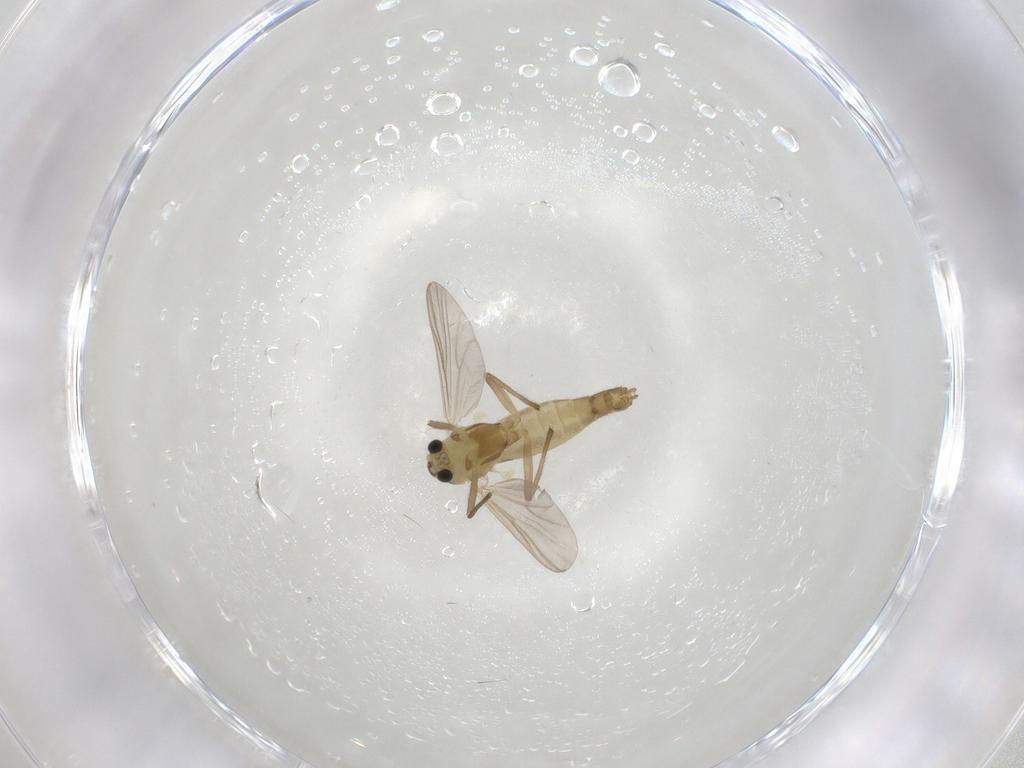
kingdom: Animalia
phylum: Arthropoda
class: Insecta
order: Diptera
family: Chironomidae
